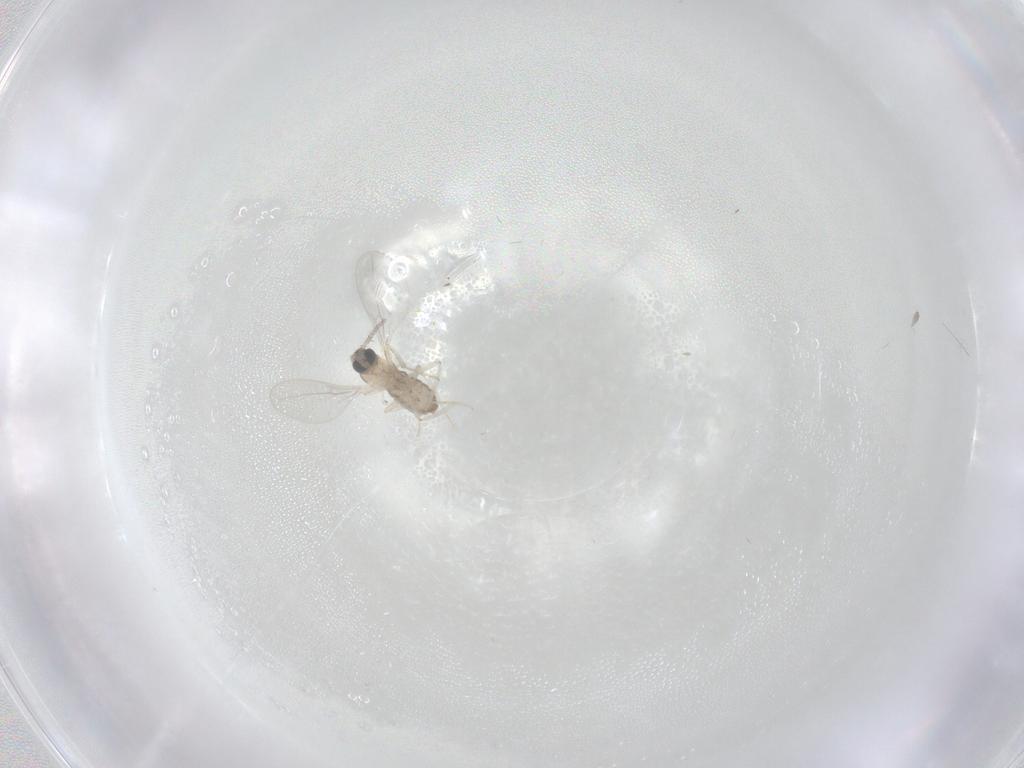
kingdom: Animalia
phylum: Arthropoda
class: Insecta
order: Diptera
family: Cecidomyiidae
